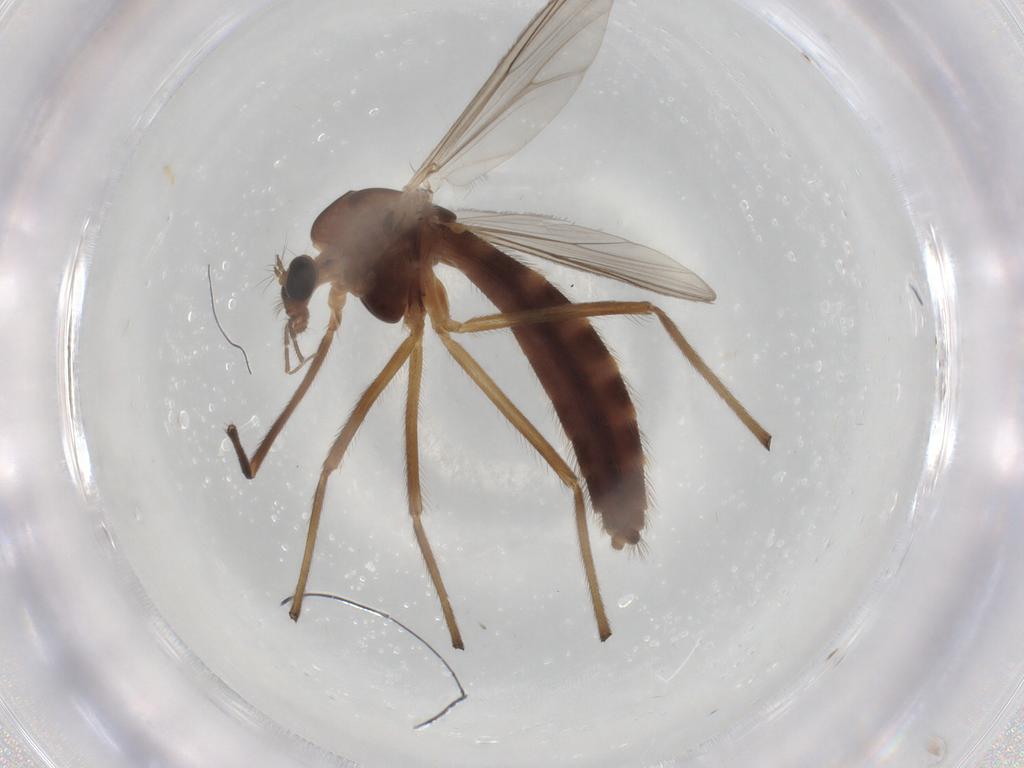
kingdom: Animalia
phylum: Arthropoda
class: Insecta
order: Diptera
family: Chironomidae
